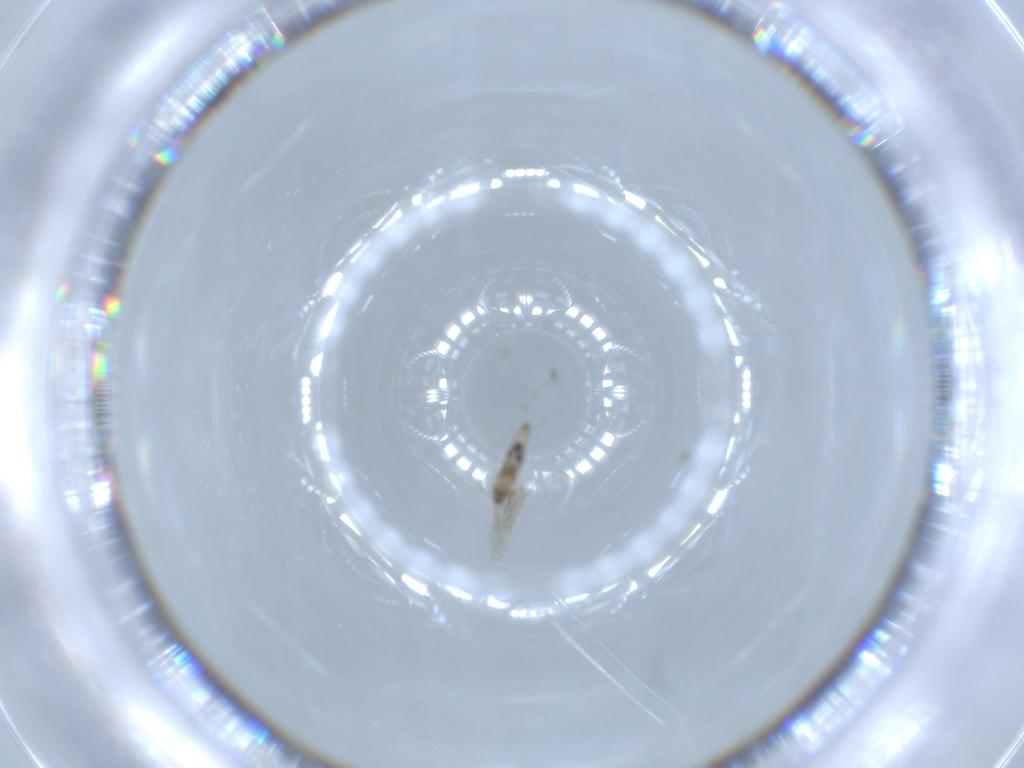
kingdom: Animalia
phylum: Arthropoda
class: Insecta
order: Diptera
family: Cecidomyiidae
